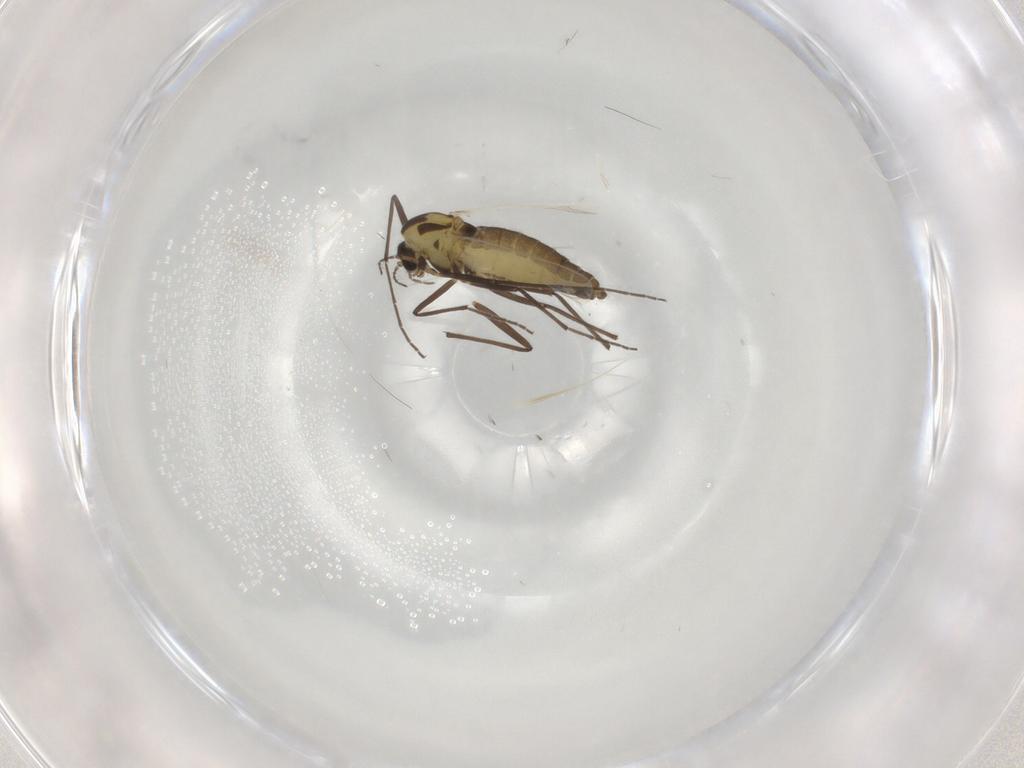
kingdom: Animalia
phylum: Arthropoda
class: Insecta
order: Diptera
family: Chironomidae
